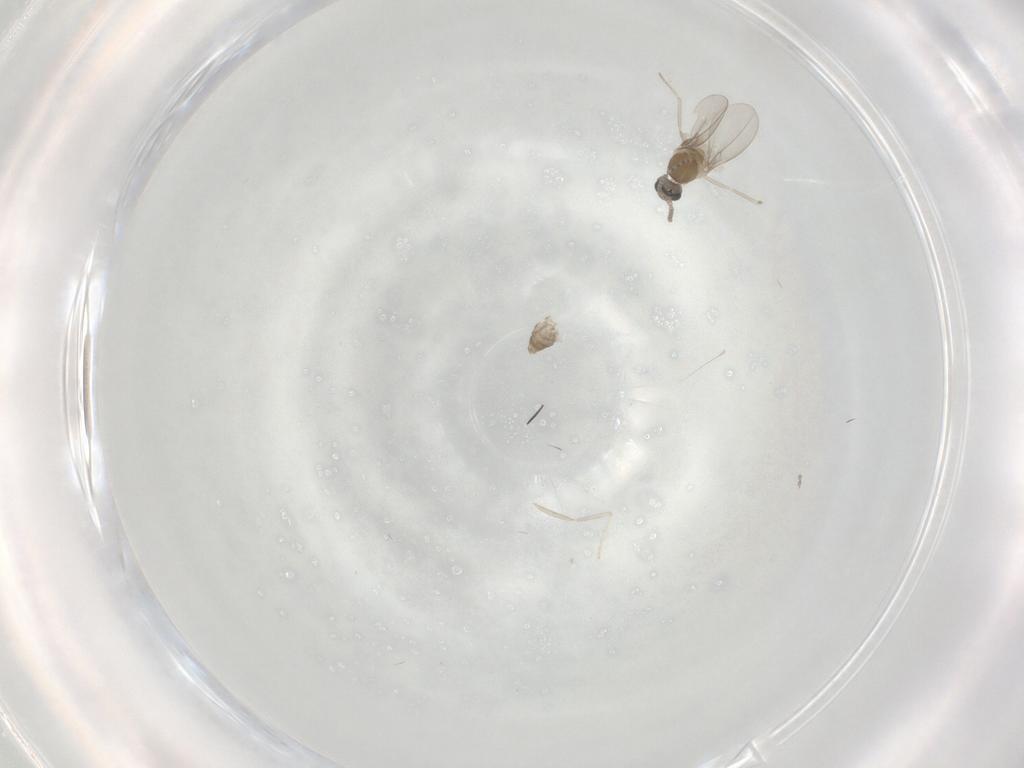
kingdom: Animalia
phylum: Arthropoda
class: Insecta
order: Diptera
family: Cecidomyiidae
